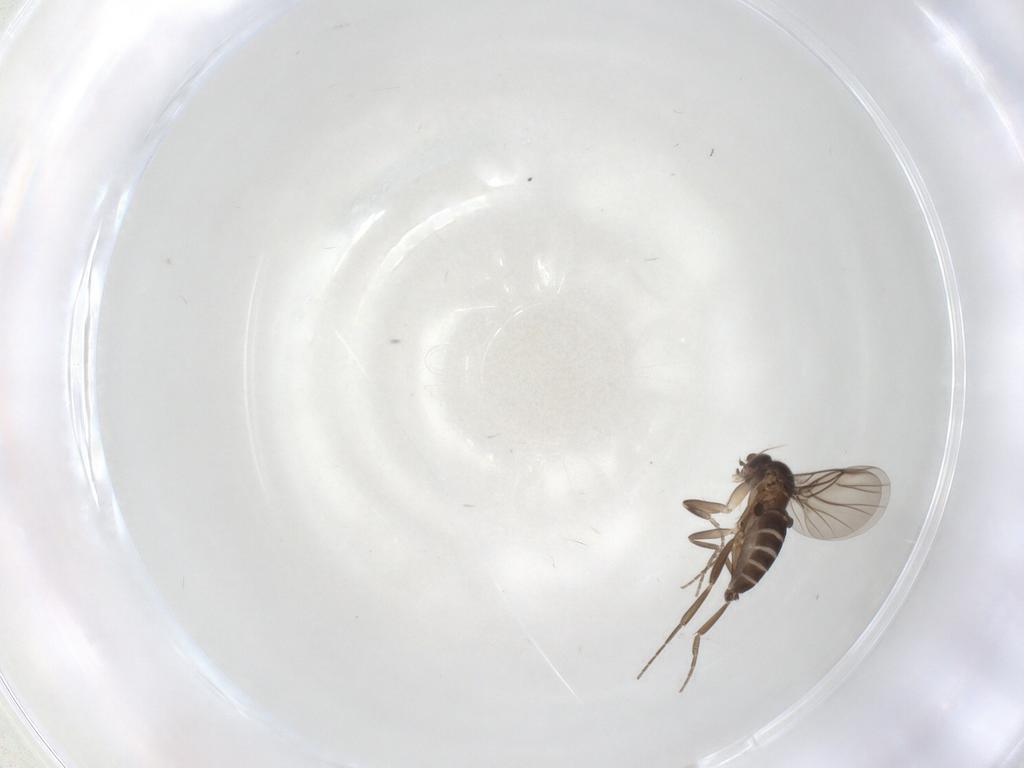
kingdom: Animalia
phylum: Arthropoda
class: Insecta
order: Diptera
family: Phoridae
